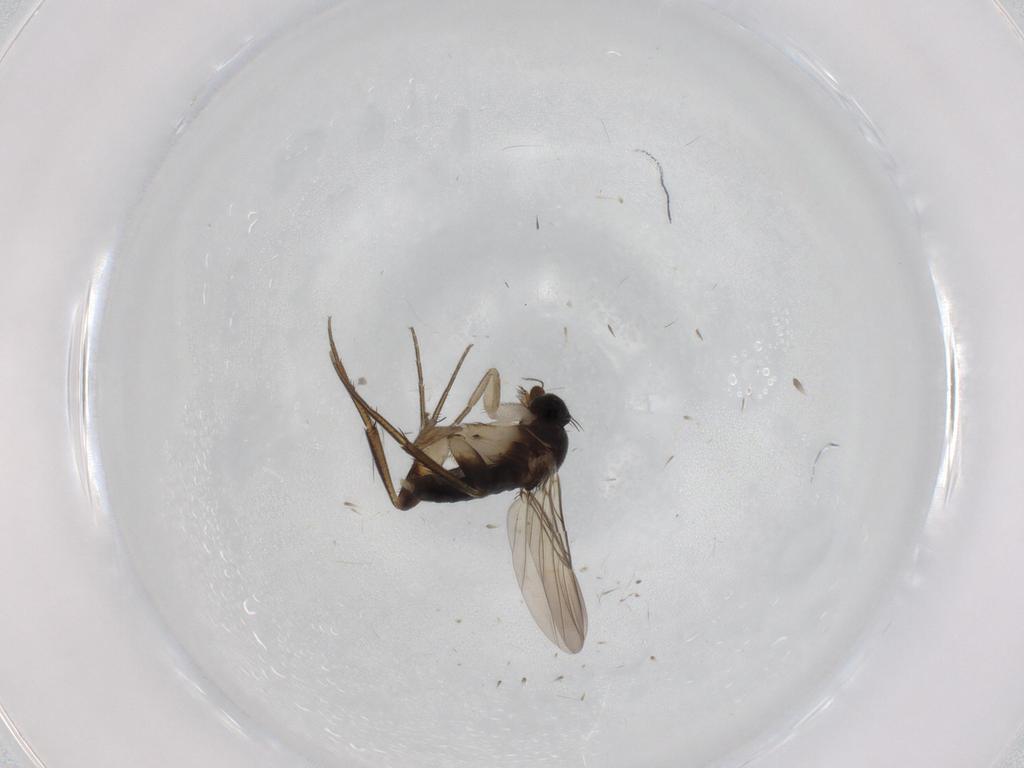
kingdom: Animalia
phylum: Arthropoda
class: Insecta
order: Diptera
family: Phoridae
